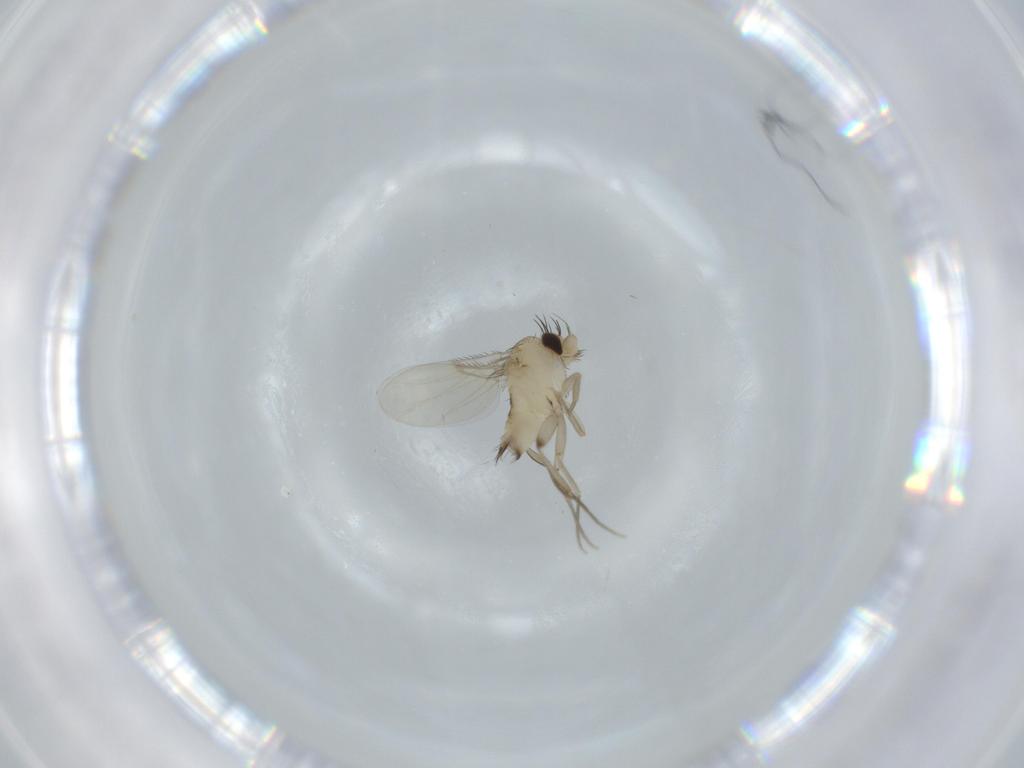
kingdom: Animalia
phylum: Arthropoda
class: Insecta
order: Diptera
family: Phoridae
